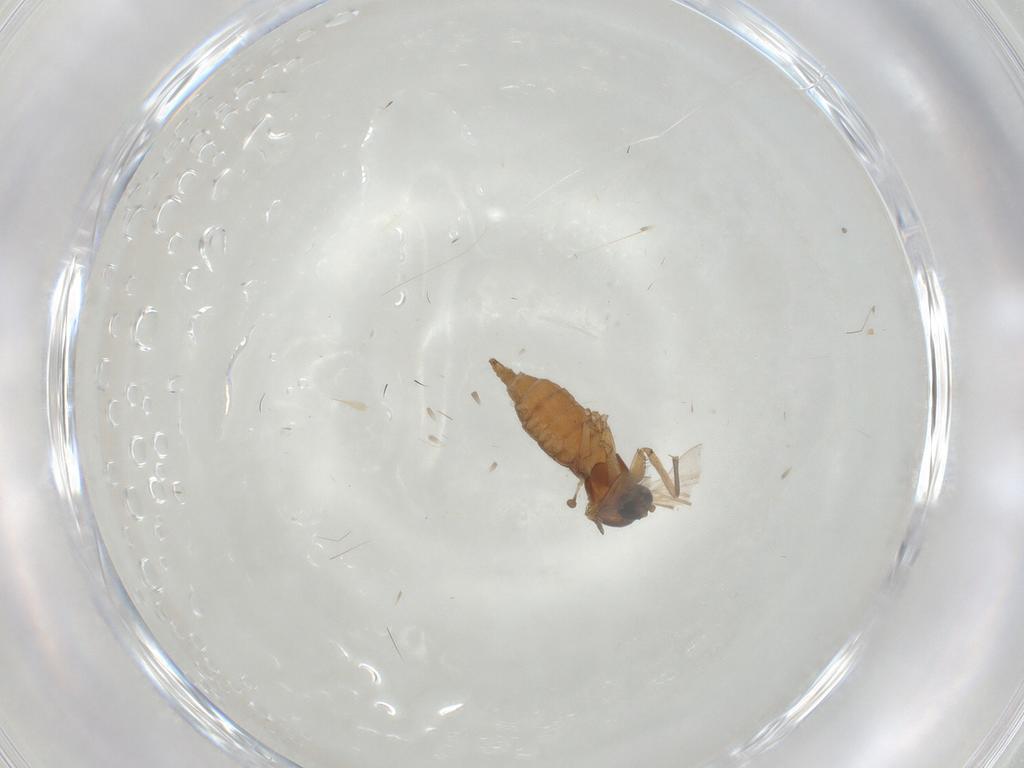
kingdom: Animalia
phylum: Arthropoda
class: Insecta
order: Diptera
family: Sciaridae
